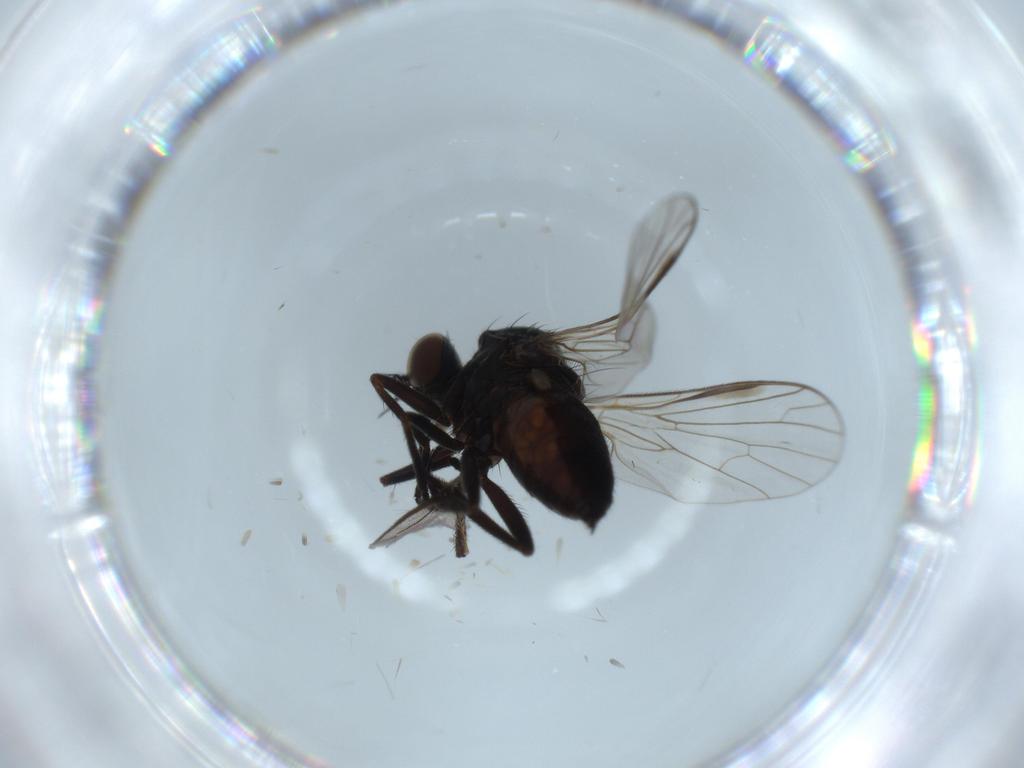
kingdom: Animalia
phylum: Arthropoda
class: Insecta
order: Diptera
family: Empididae
